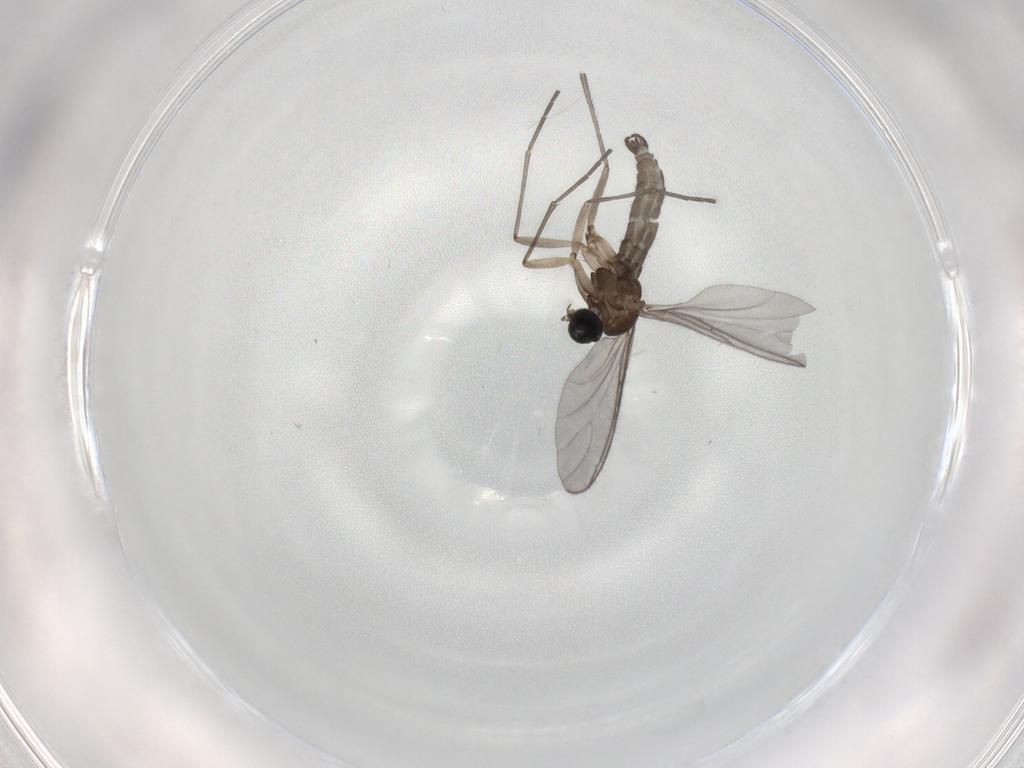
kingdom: Animalia
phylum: Arthropoda
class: Insecta
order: Diptera
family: Sciaridae
